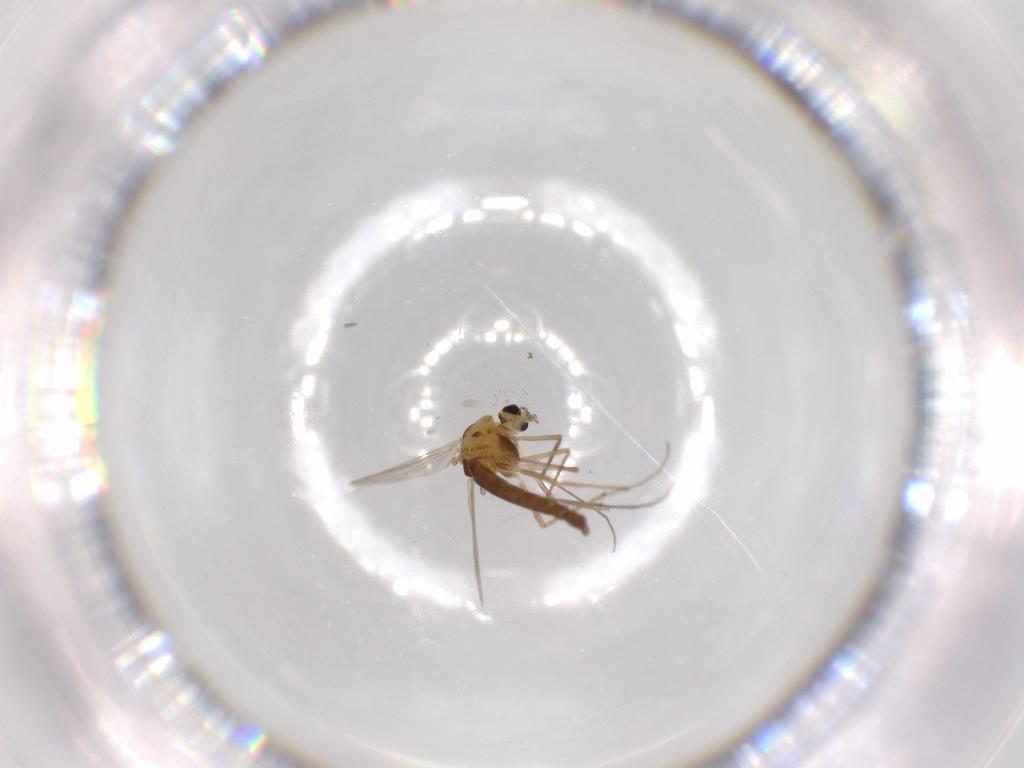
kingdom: Animalia
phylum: Arthropoda
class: Insecta
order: Diptera
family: Chironomidae
